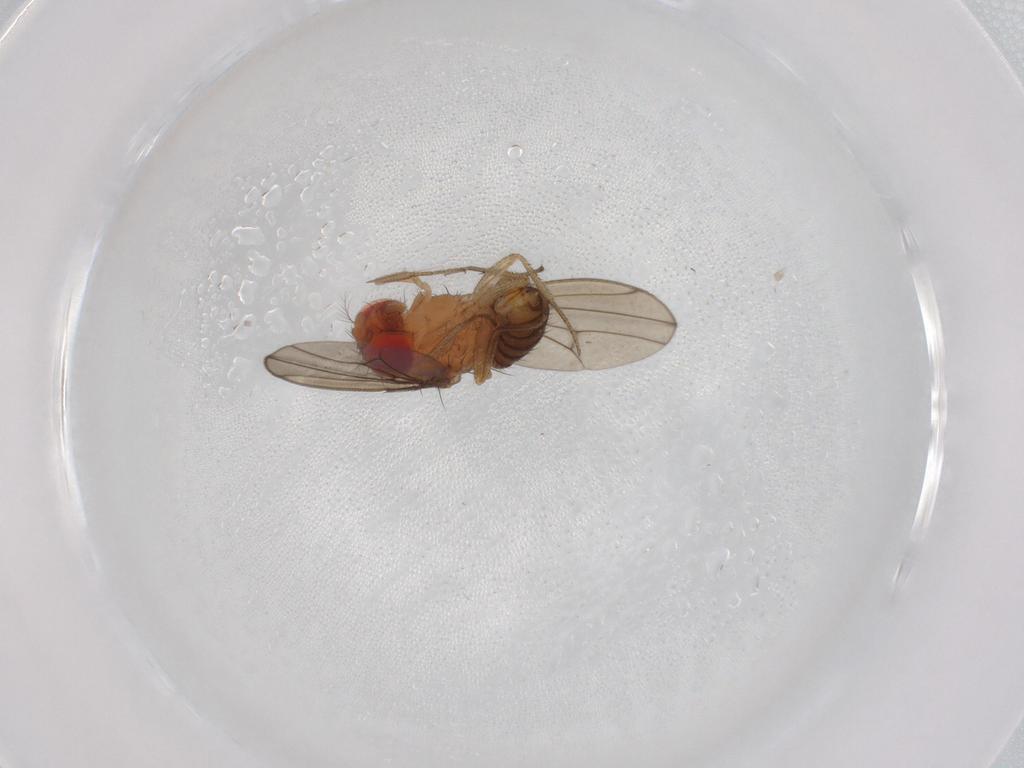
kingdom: Animalia
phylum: Arthropoda
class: Insecta
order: Diptera
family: Drosophilidae
